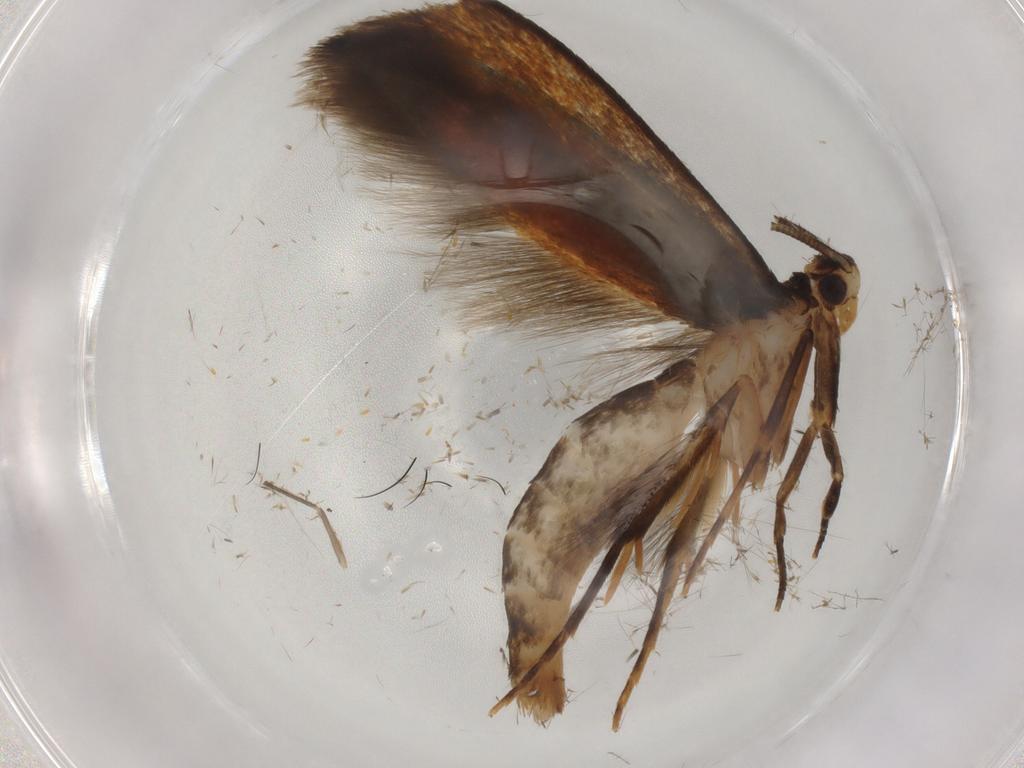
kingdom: Animalia
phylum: Arthropoda
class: Insecta
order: Lepidoptera
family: Tineidae
